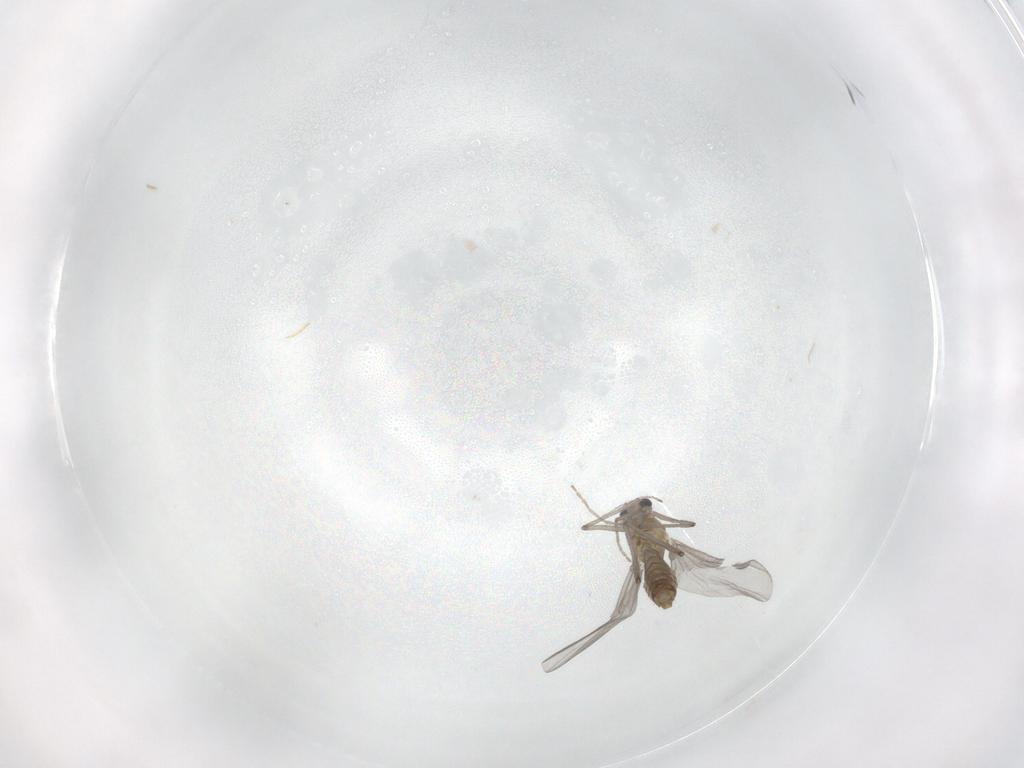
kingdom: Animalia
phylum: Arthropoda
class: Insecta
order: Diptera
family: Chironomidae
